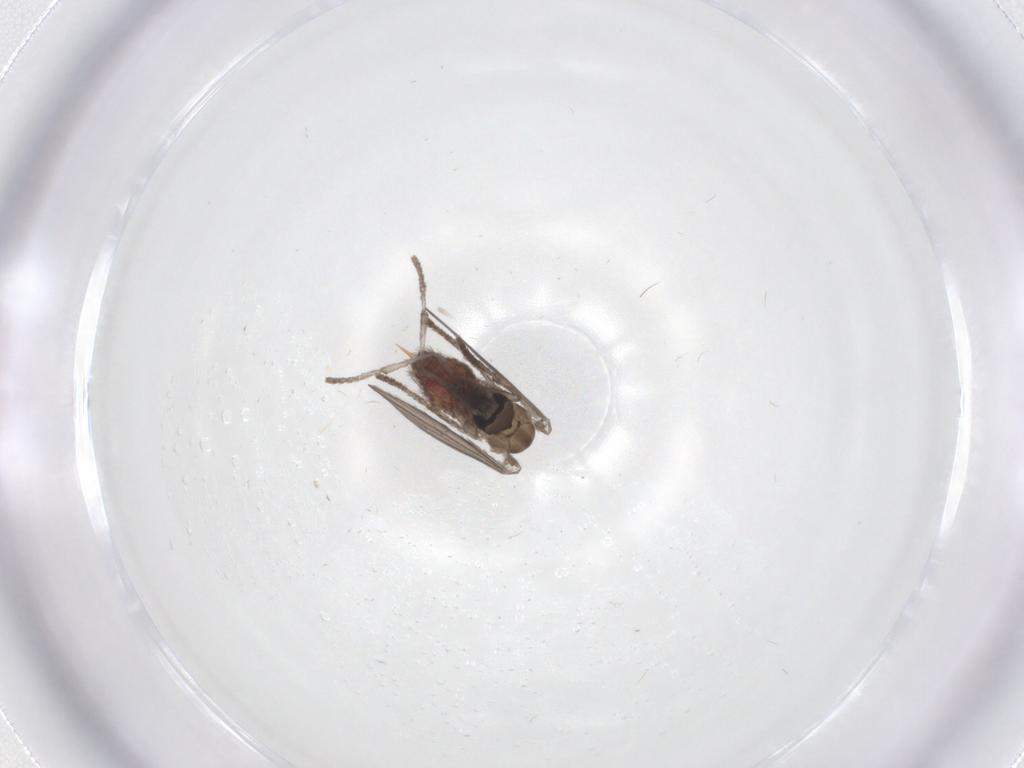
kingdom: Animalia
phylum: Arthropoda
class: Insecta
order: Diptera
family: Psychodidae
